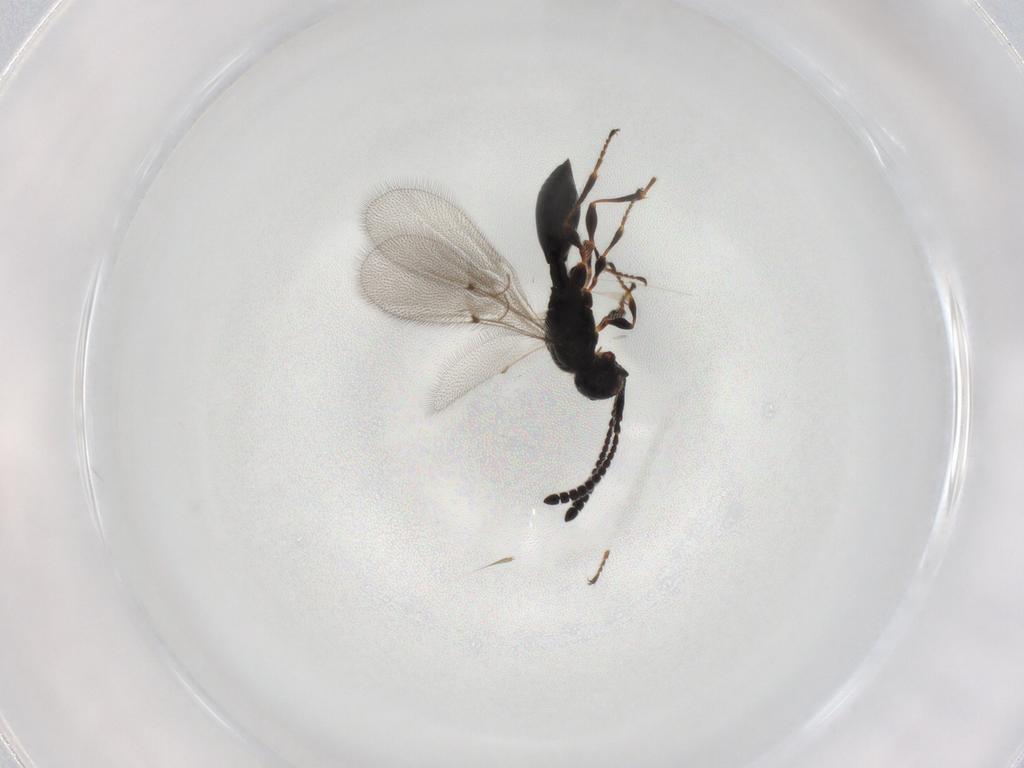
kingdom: Animalia
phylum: Arthropoda
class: Insecta
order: Hymenoptera
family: Diapriidae
